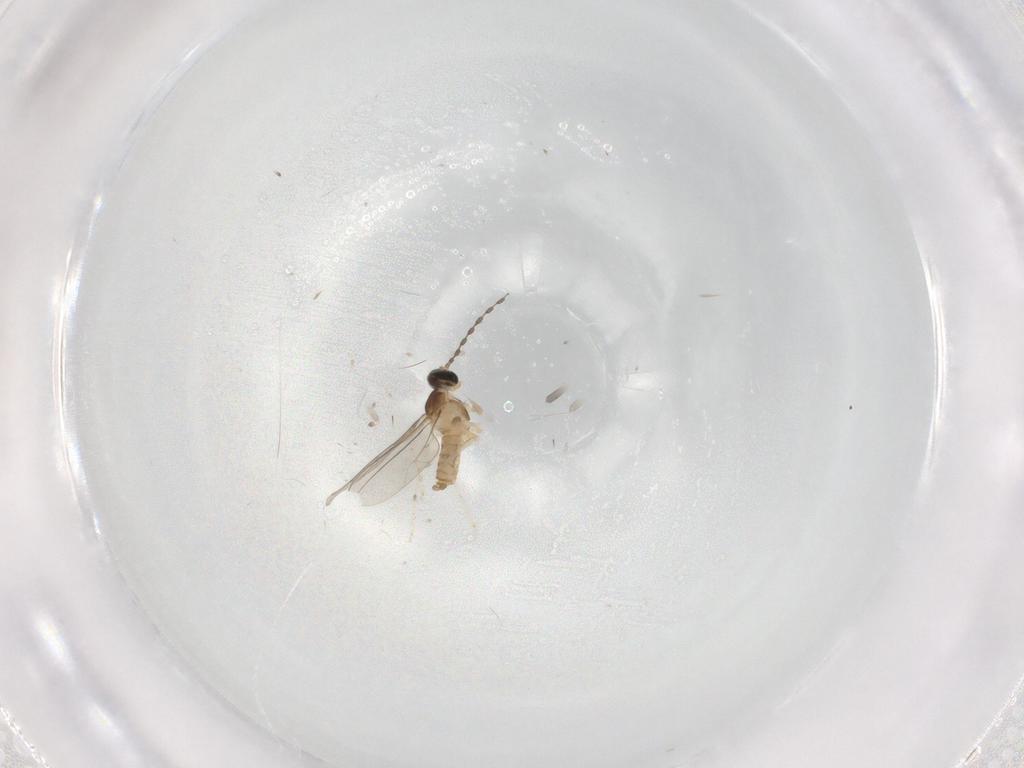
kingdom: Animalia
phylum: Arthropoda
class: Insecta
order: Diptera
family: Cecidomyiidae
